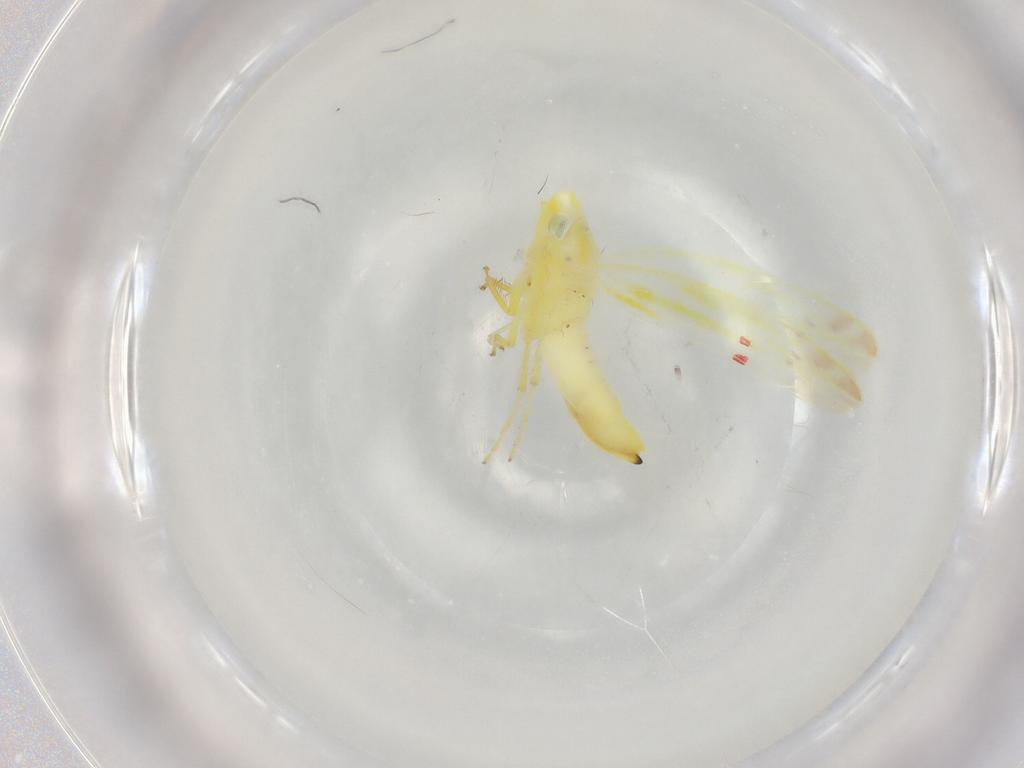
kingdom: Animalia
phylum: Arthropoda
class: Insecta
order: Hemiptera
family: Cicadellidae
